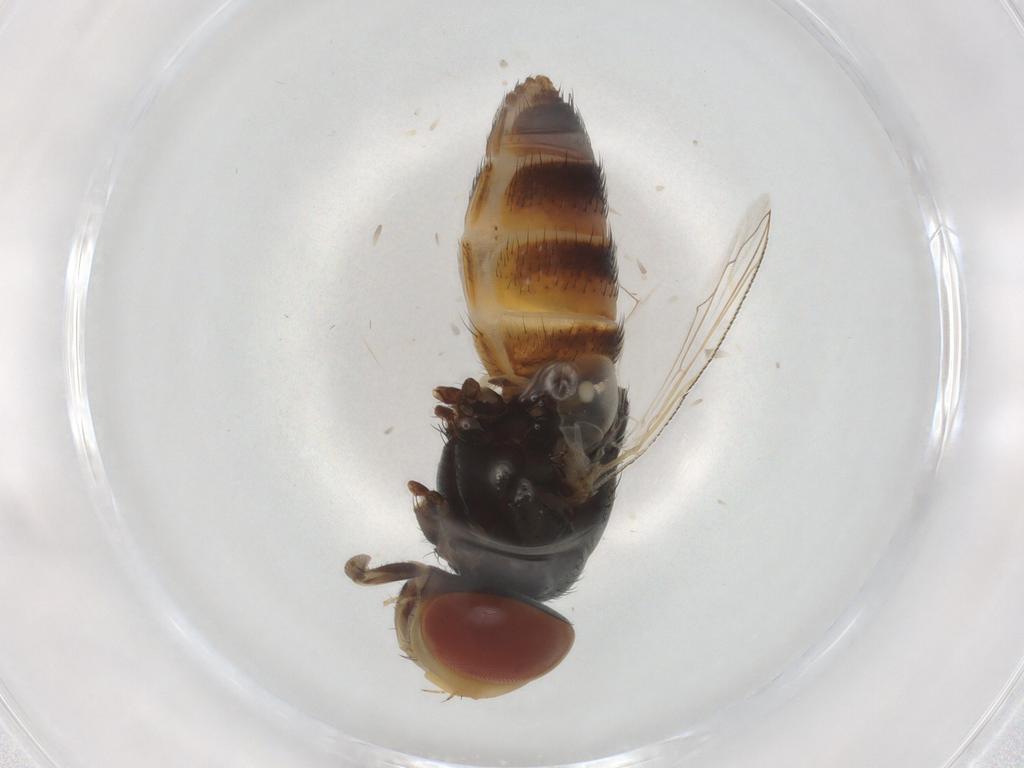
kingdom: Animalia
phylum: Arthropoda
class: Insecta
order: Diptera
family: Sarcophagidae
